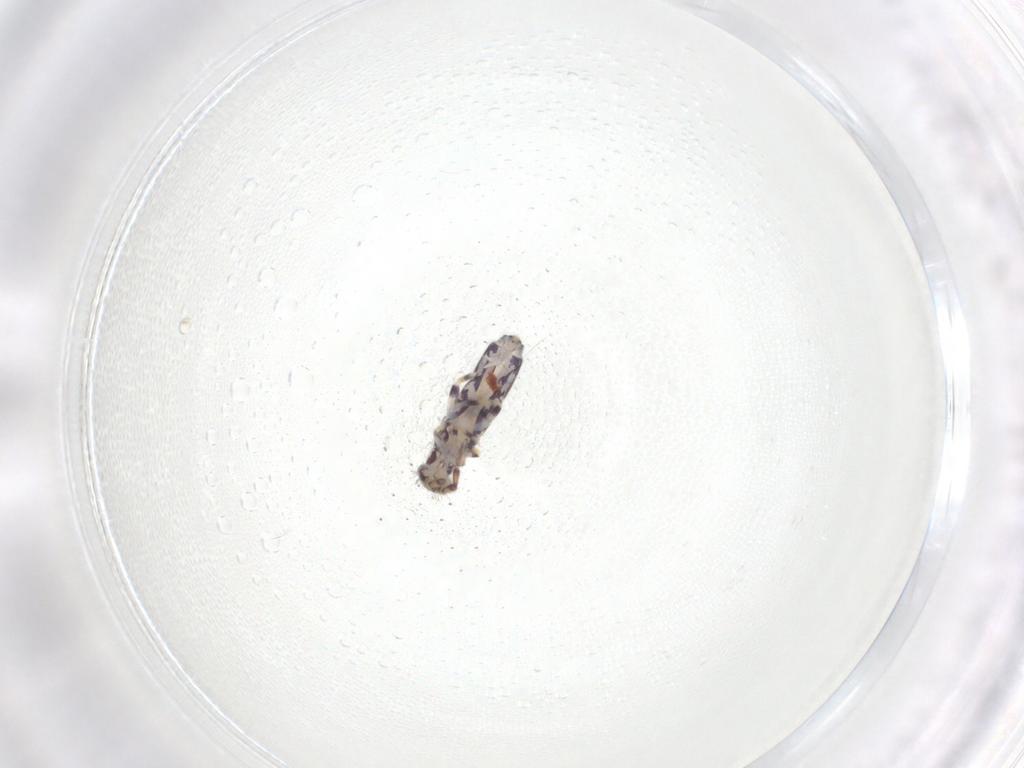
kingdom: Animalia
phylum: Arthropoda
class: Collembola
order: Entomobryomorpha
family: Entomobryidae
